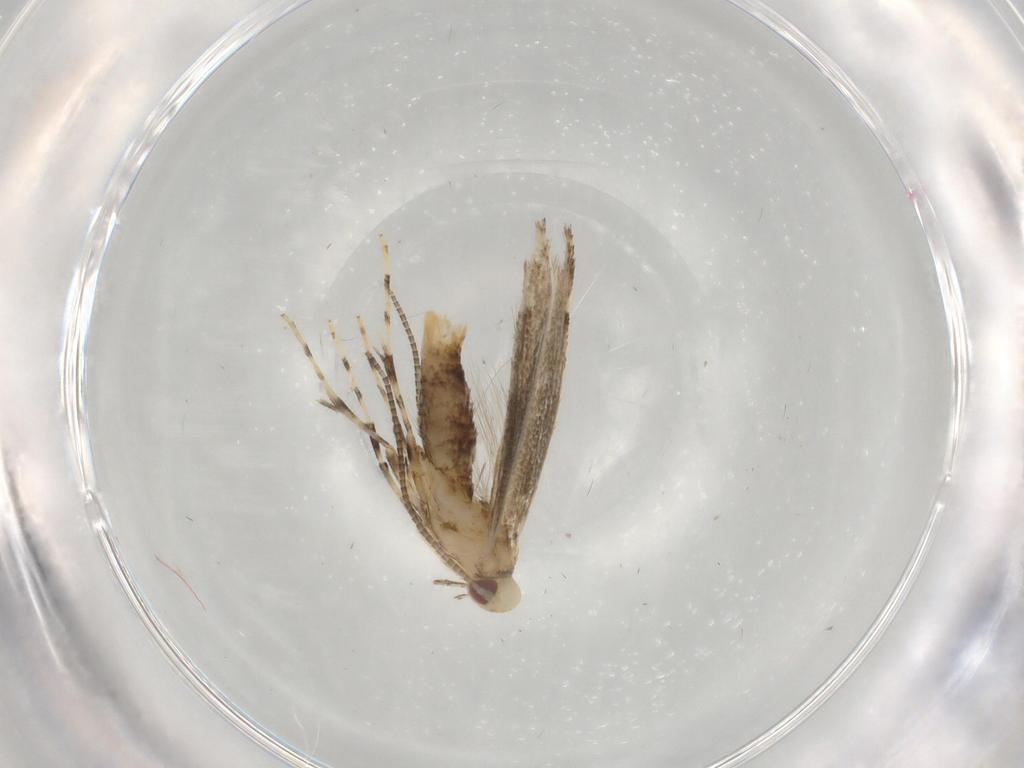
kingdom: Animalia
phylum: Arthropoda
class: Insecta
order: Lepidoptera
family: Gracillariidae
